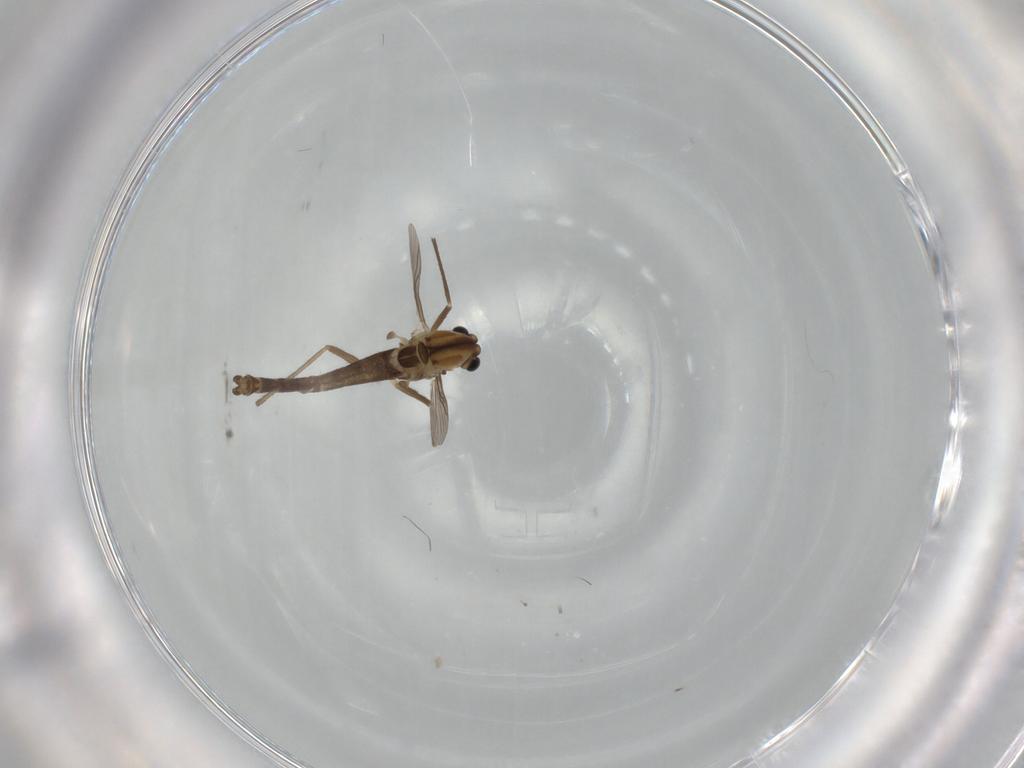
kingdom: Animalia
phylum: Arthropoda
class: Insecta
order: Diptera
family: Chironomidae
